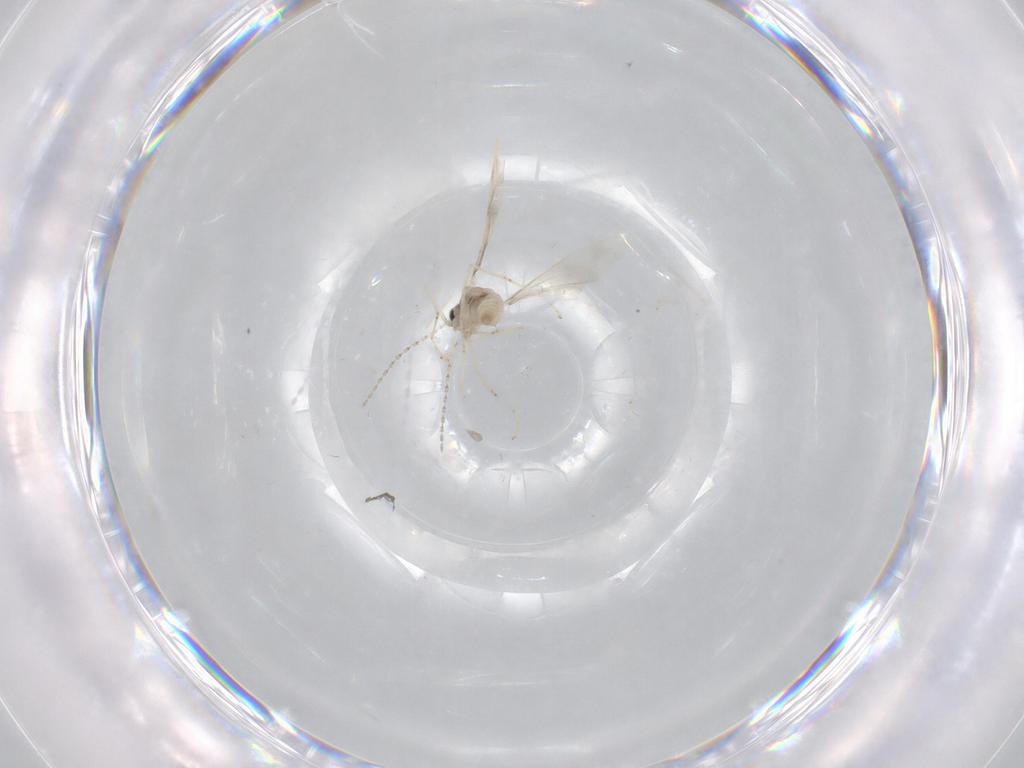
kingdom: Animalia
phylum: Arthropoda
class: Insecta
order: Diptera
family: Cecidomyiidae
